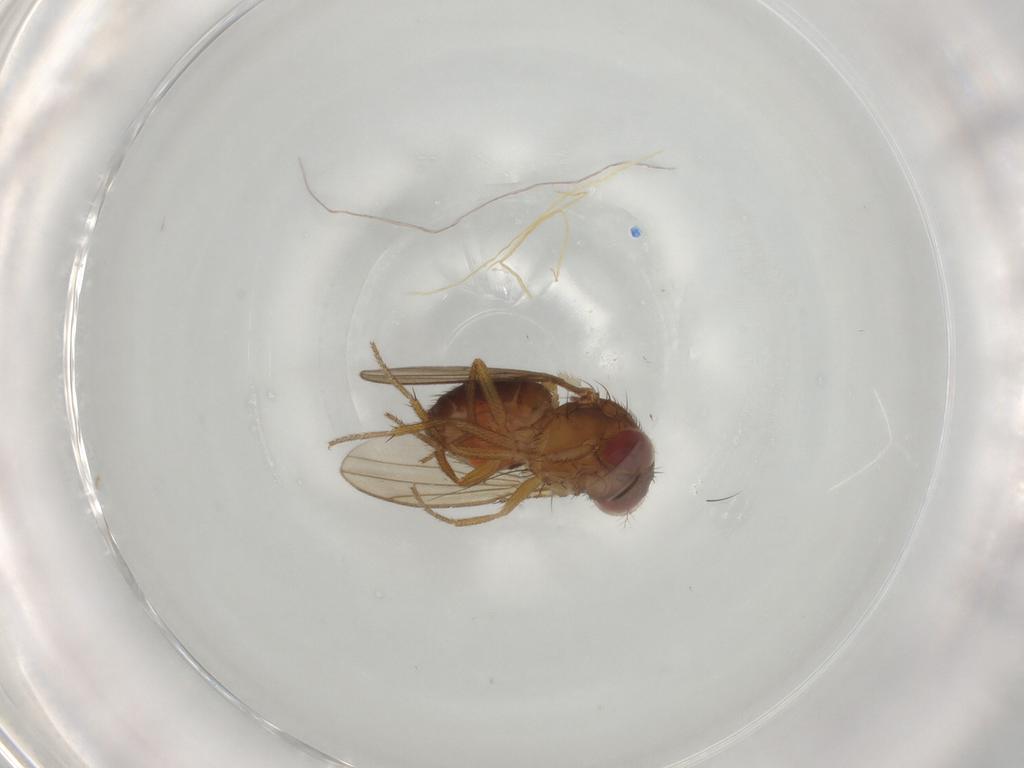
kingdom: Animalia
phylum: Arthropoda
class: Insecta
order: Diptera
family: Drosophilidae
